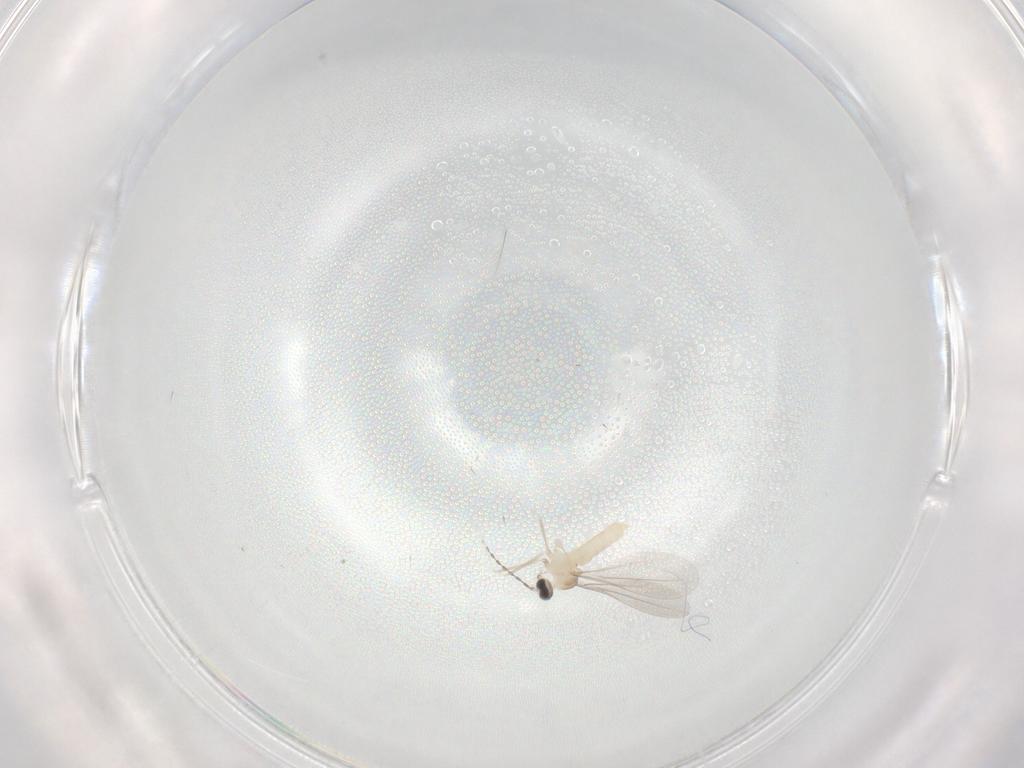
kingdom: Animalia
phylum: Arthropoda
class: Insecta
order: Diptera
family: Cecidomyiidae
